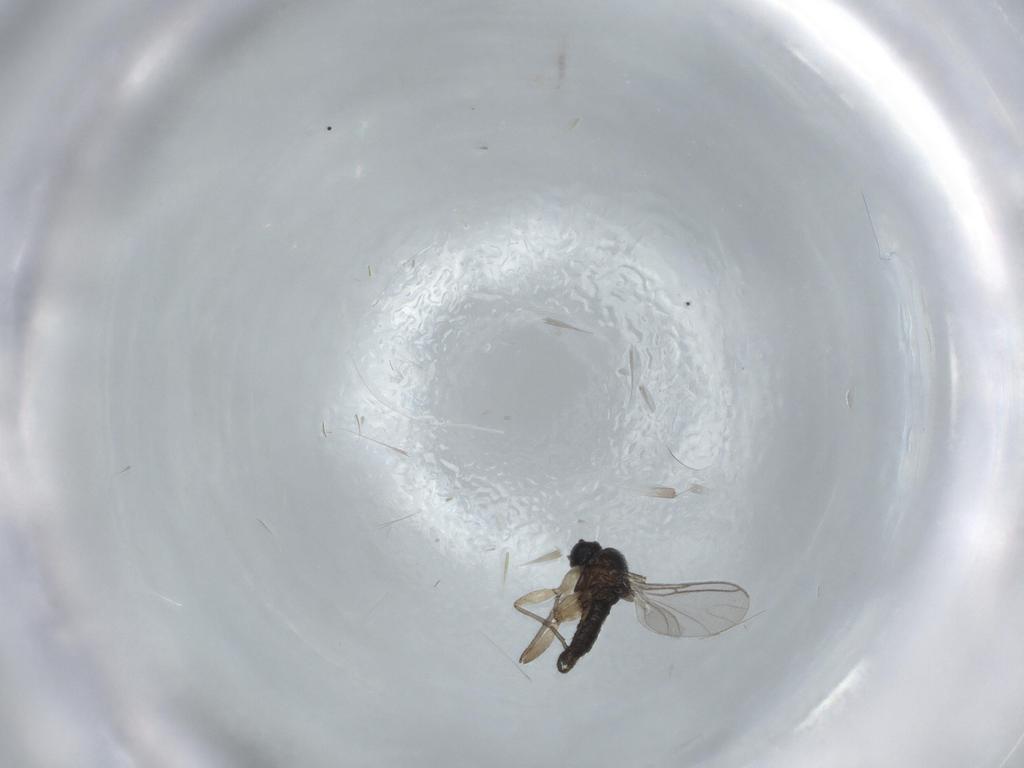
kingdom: Animalia
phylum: Arthropoda
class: Insecta
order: Diptera
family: Sciaridae
